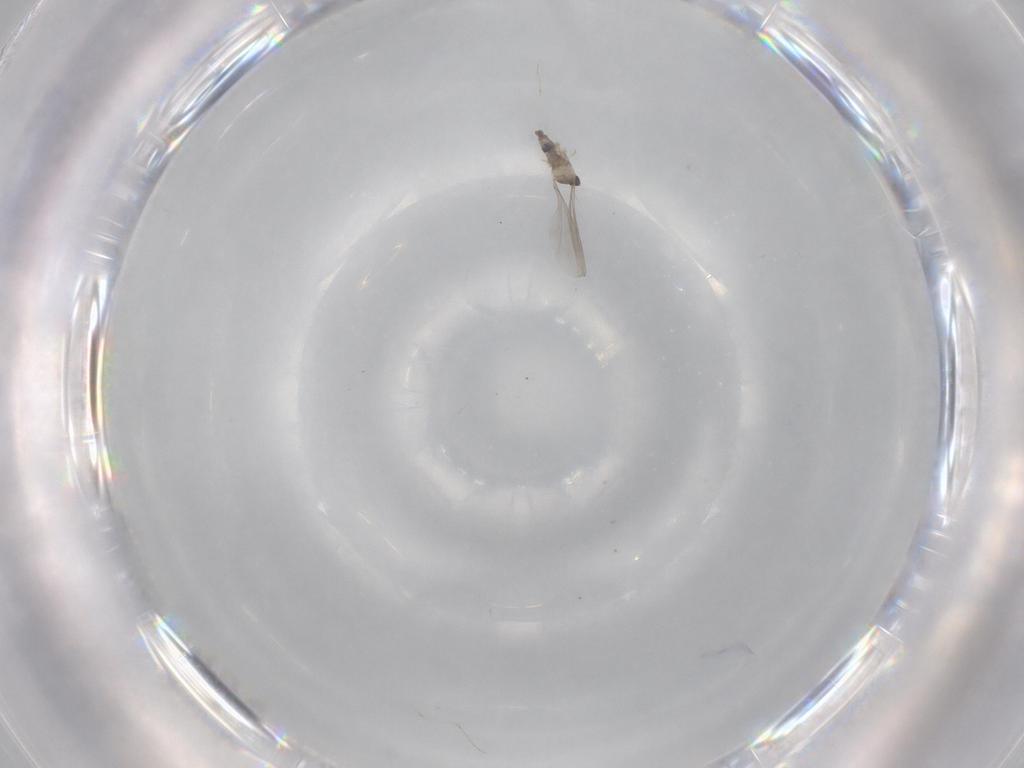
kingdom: Animalia
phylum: Arthropoda
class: Insecta
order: Diptera
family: Cecidomyiidae
